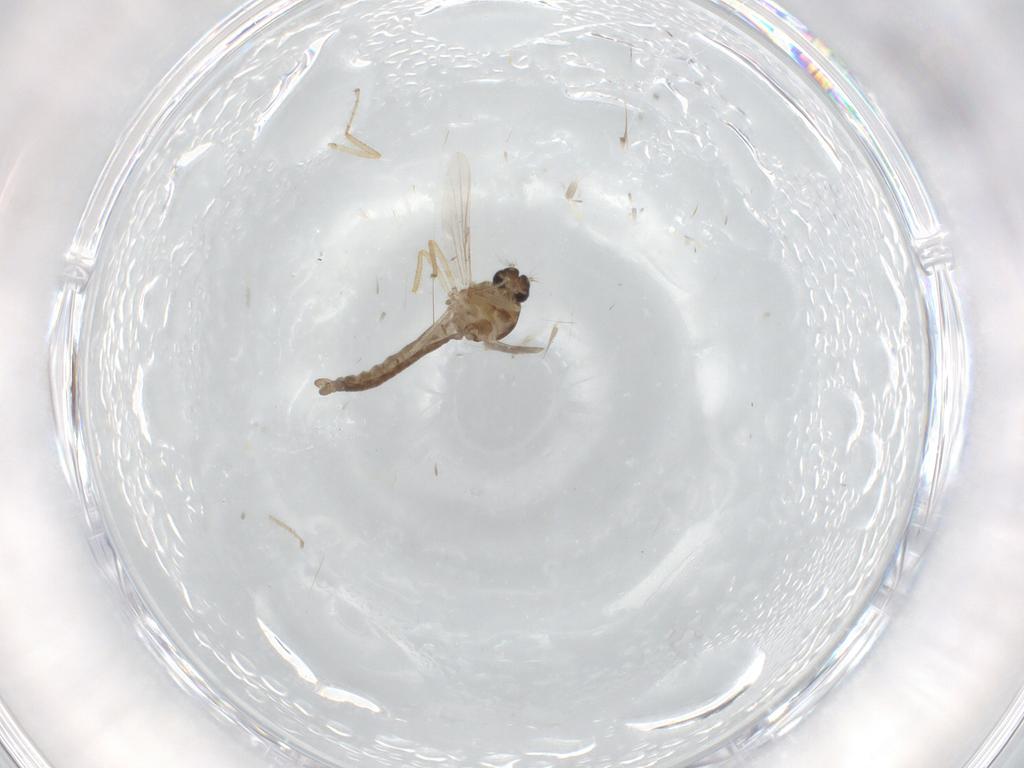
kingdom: Animalia
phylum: Arthropoda
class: Insecta
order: Diptera
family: Ceratopogonidae
